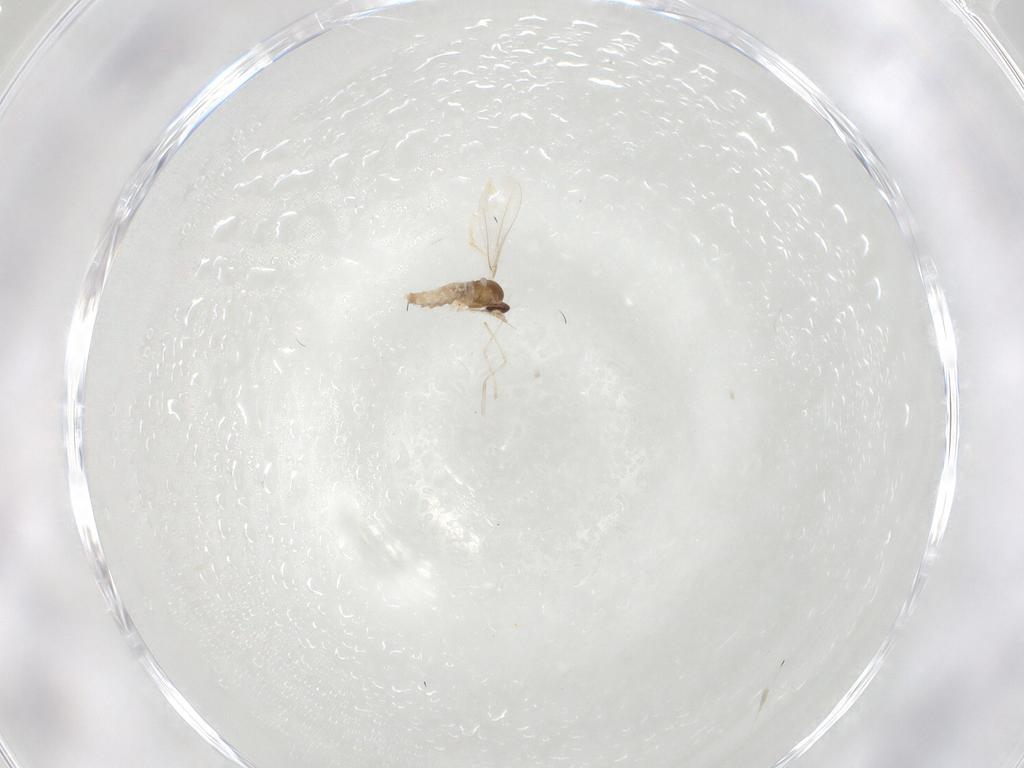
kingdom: Animalia
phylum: Arthropoda
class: Insecta
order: Diptera
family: Cecidomyiidae
